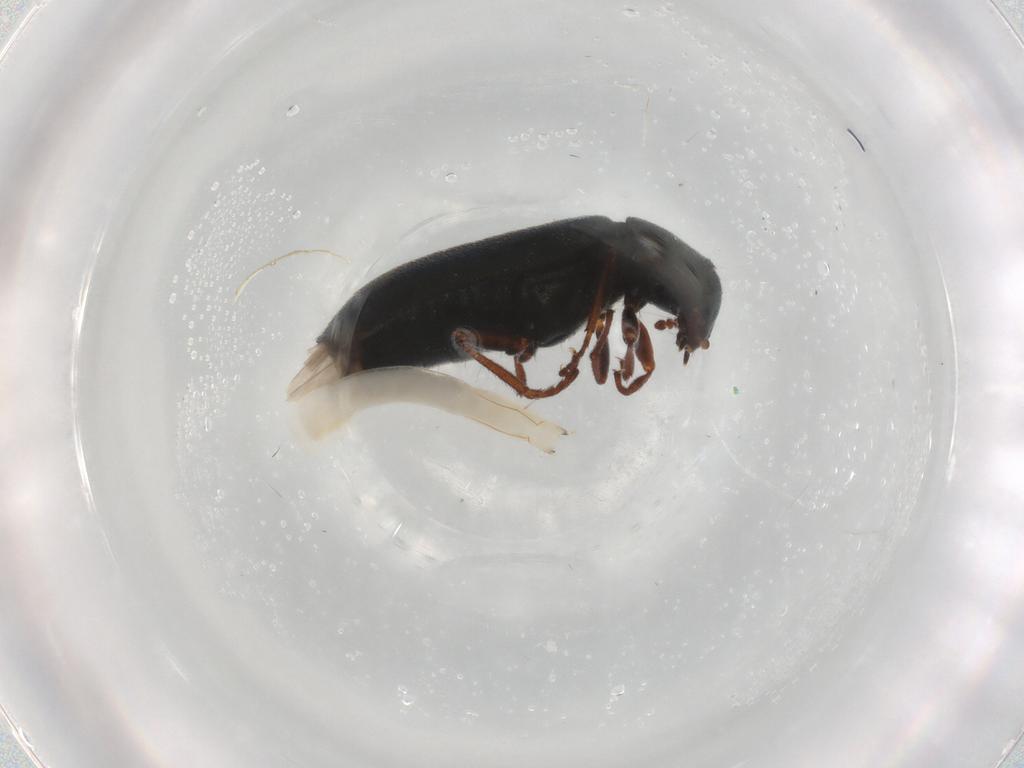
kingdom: Animalia
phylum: Arthropoda
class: Insecta
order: Coleoptera
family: Melyridae
